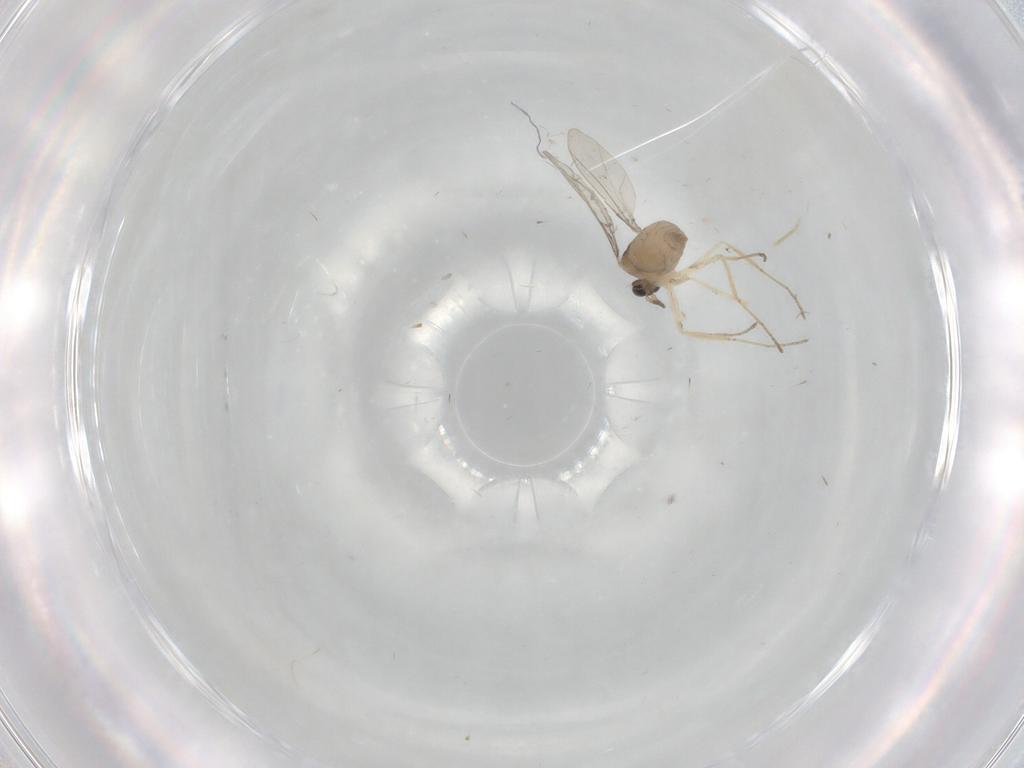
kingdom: Animalia
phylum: Arthropoda
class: Insecta
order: Diptera
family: Cecidomyiidae
